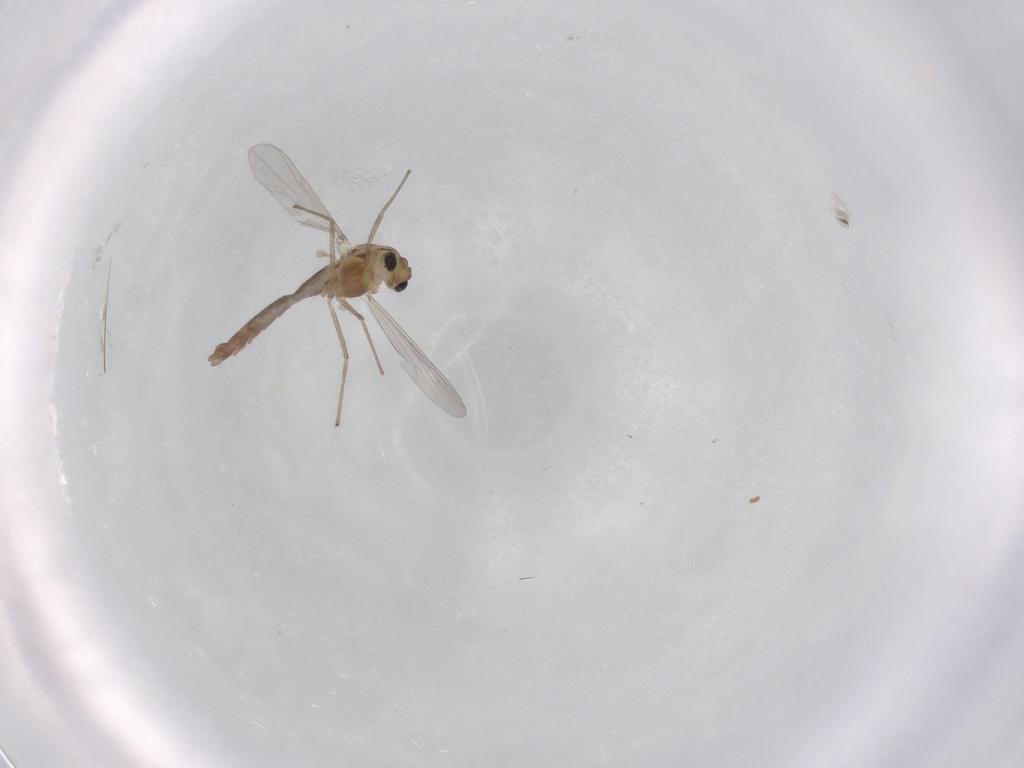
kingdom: Animalia
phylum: Arthropoda
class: Insecta
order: Diptera
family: Chironomidae
